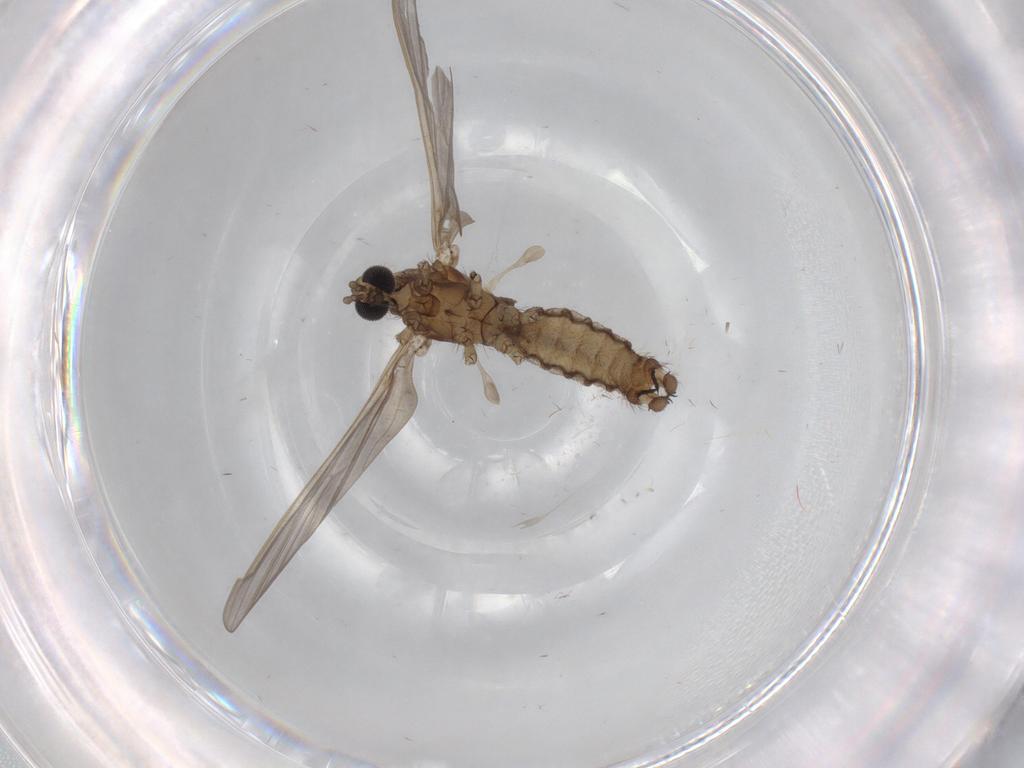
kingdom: Animalia
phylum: Arthropoda
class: Insecta
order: Diptera
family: Limoniidae
